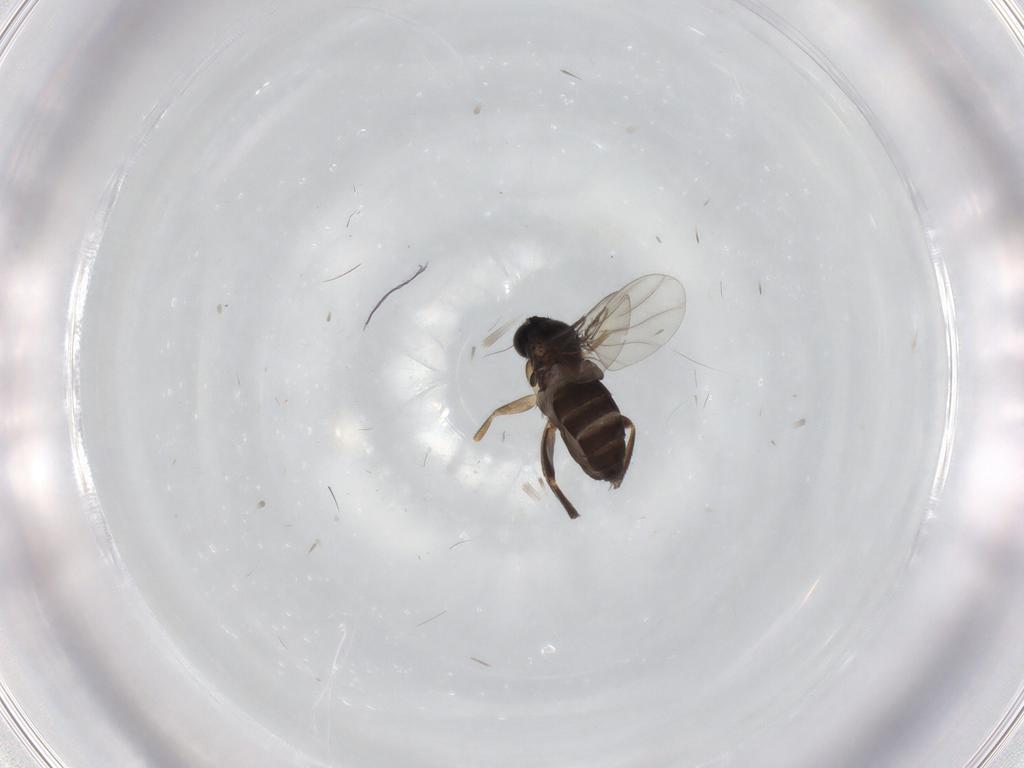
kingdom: Animalia
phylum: Arthropoda
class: Insecta
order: Diptera
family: Phoridae
